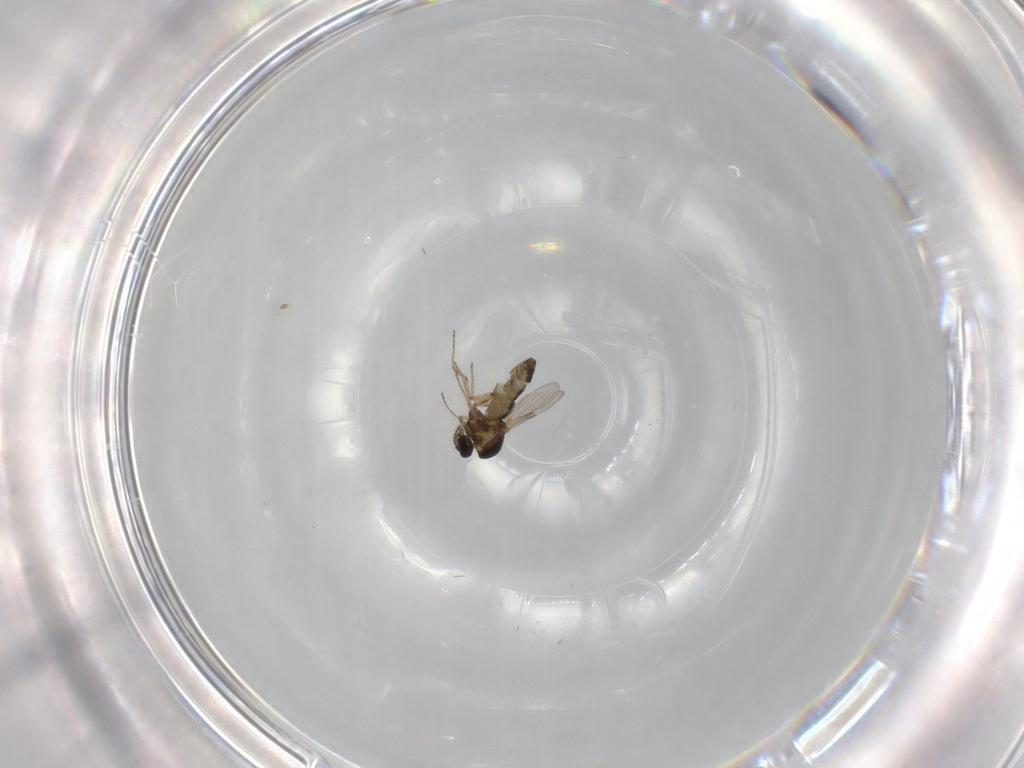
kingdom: Animalia
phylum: Arthropoda
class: Insecta
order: Diptera
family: Ceratopogonidae
